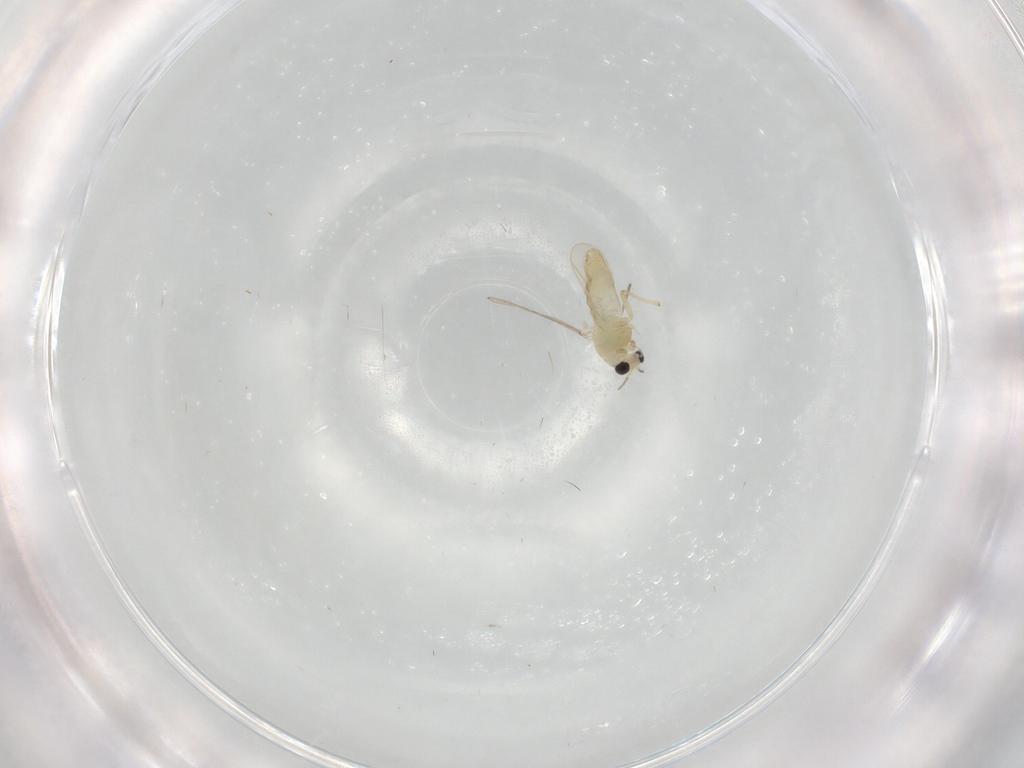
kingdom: Animalia
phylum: Arthropoda
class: Insecta
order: Diptera
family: Chironomidae
